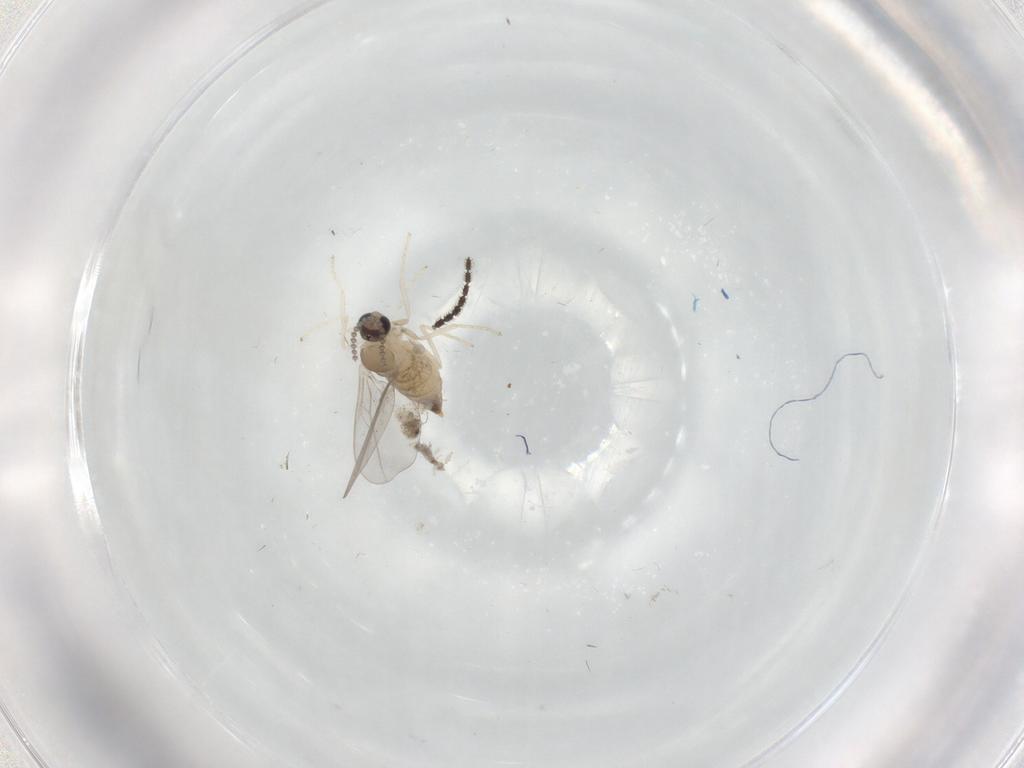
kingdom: Animalia
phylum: Arthropoda
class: Insecta
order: Diptera
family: Cecidomyiidae
